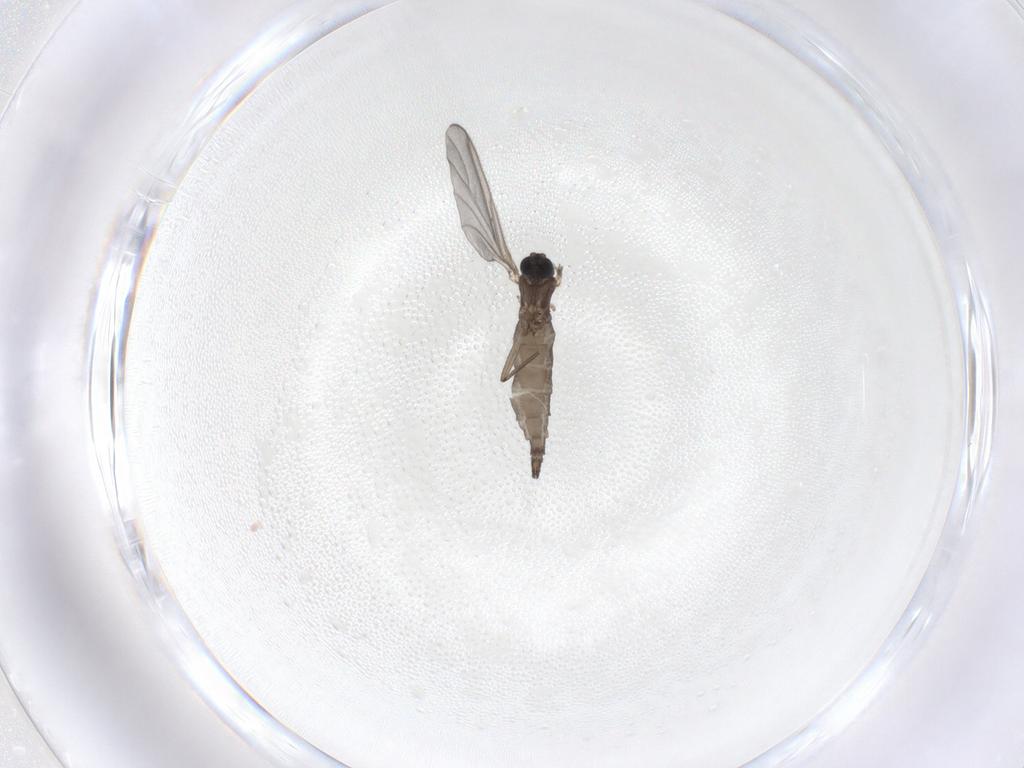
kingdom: Animalia
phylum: Arthropoda
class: Insecta
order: Diptera
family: Sciaridae
